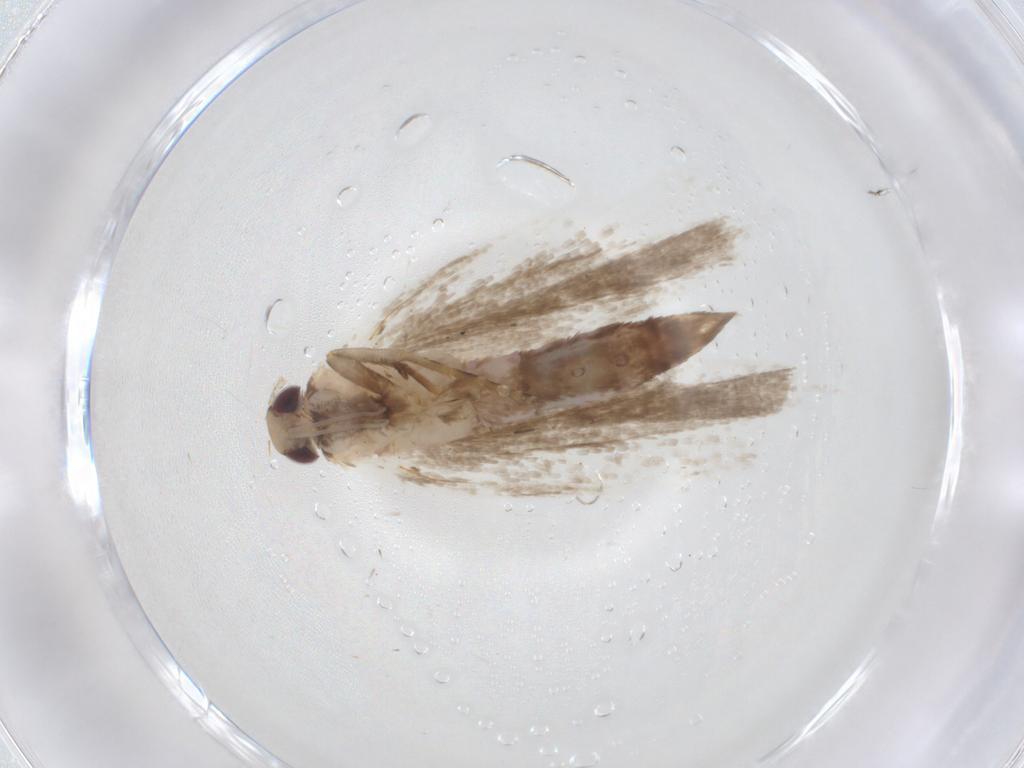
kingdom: Animalia
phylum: Arthropoda
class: Insecta
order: Lepidoptera
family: Gelechiidae
